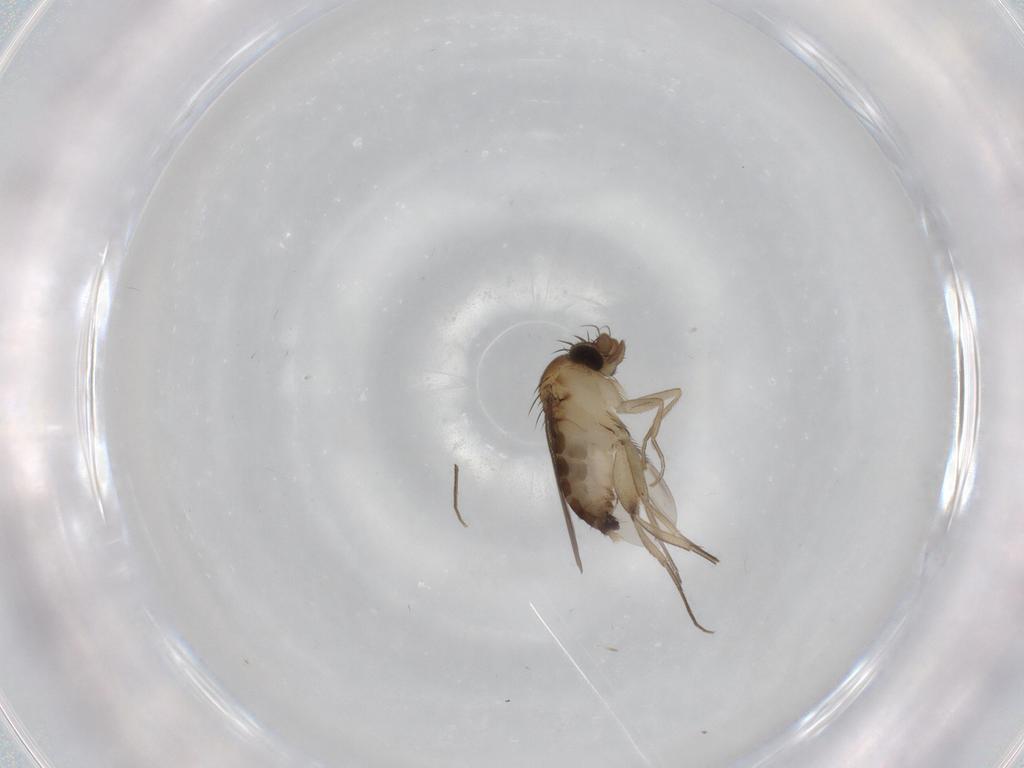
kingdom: Animalia
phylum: Arthropoda
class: Insecta
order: Diptera
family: Phoridae
